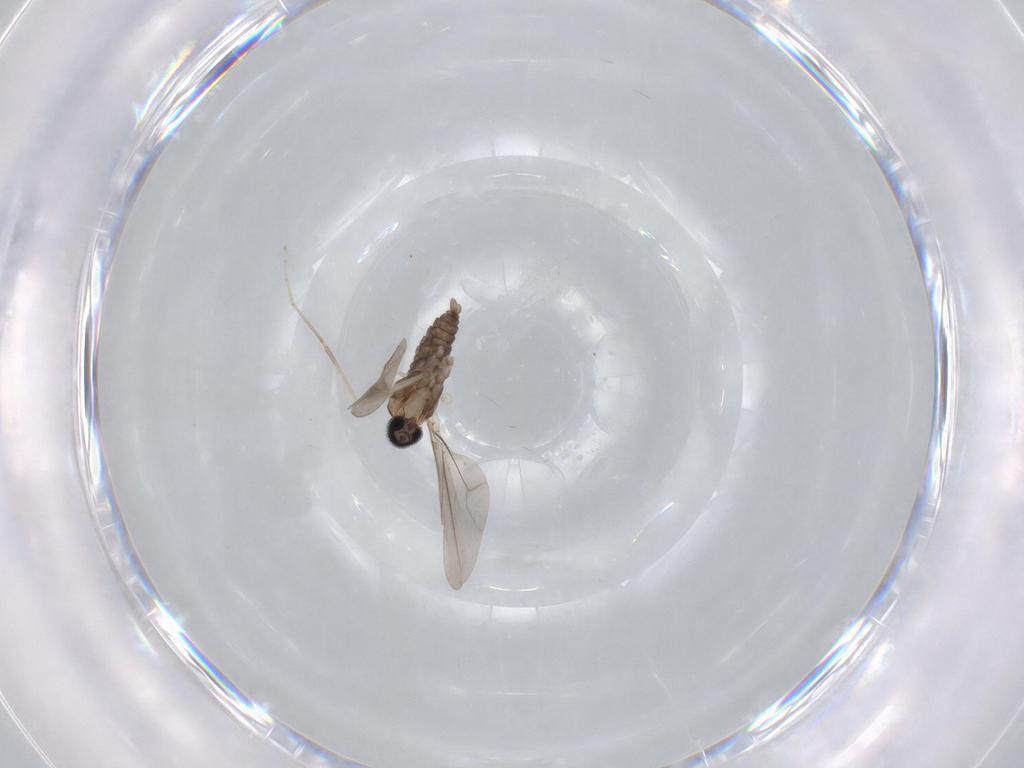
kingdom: Animalia
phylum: Arthropoda
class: Insecta
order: Diptera
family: Cecidomyiidae
